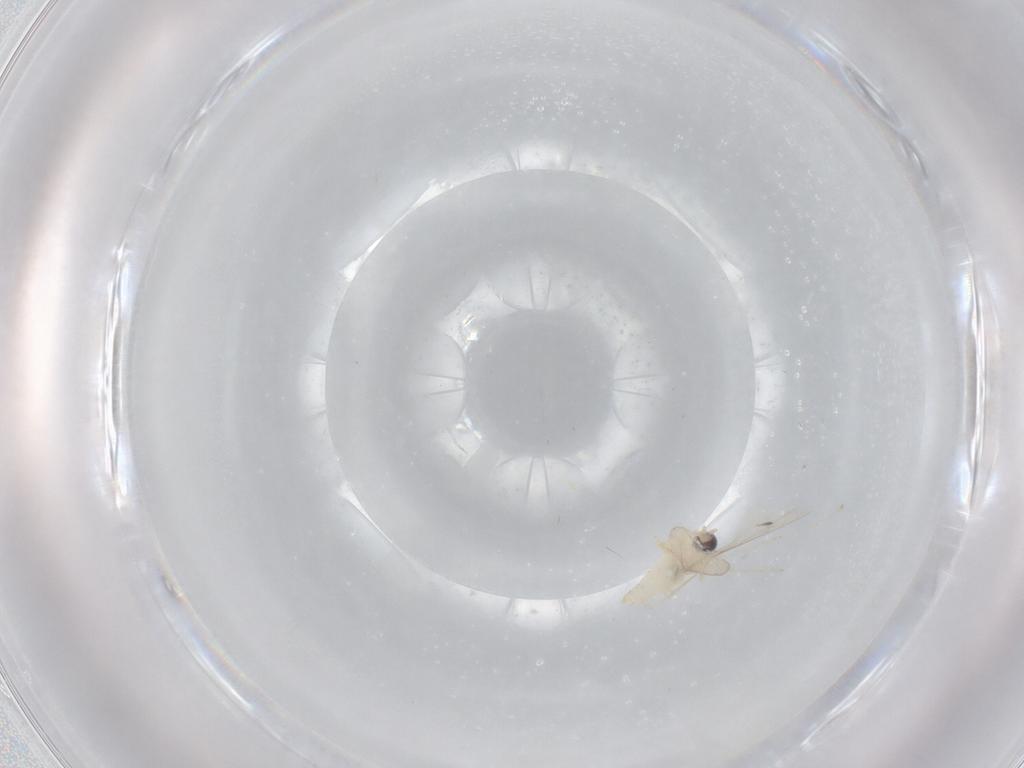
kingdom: Animalia
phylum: Arthropoda
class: Insecta
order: Diptera
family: Cecidomyiidae
